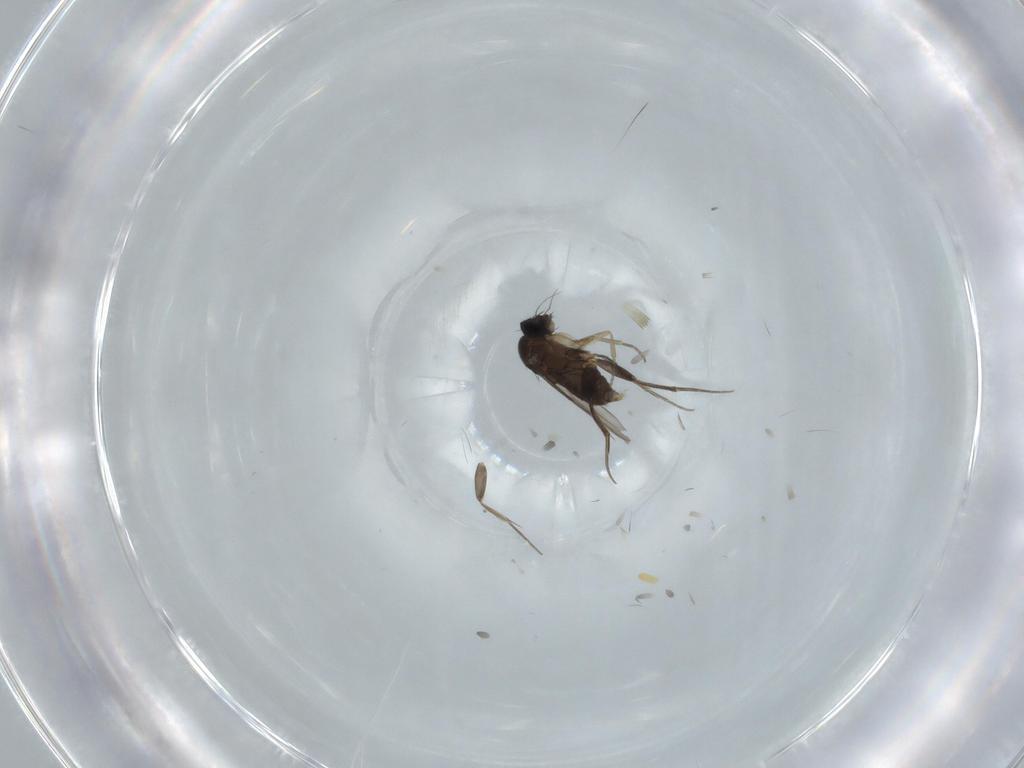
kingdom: Animalia
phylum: Arthropoda
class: Insecta
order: Diptera
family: Phoridae
